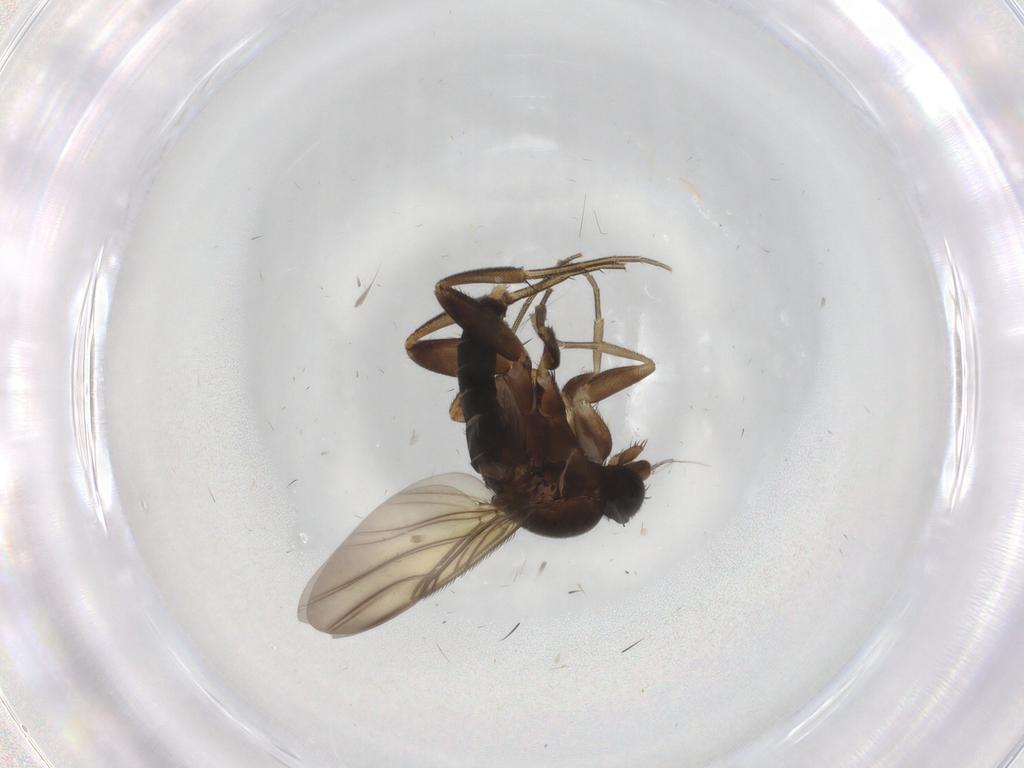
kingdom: Animalia
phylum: Arthropoda
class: Insecta
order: Diptera
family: Phoridae
